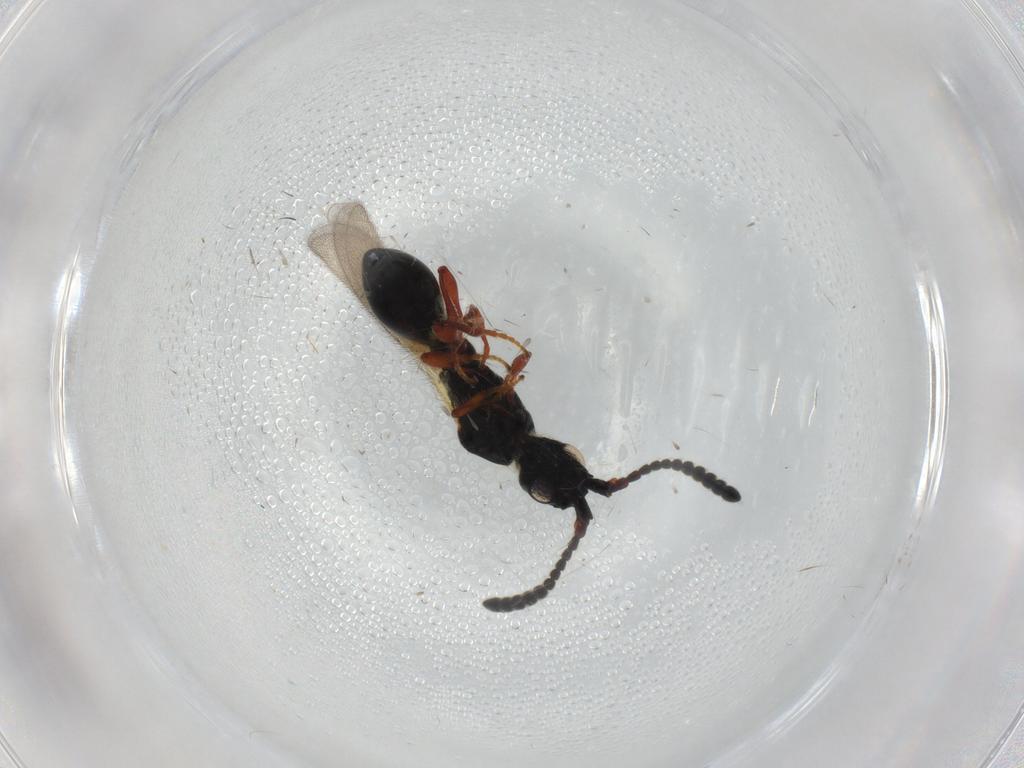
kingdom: Animalia
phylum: Arthropoda
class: Insecta
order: Hymenoptera
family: Diapriidae
